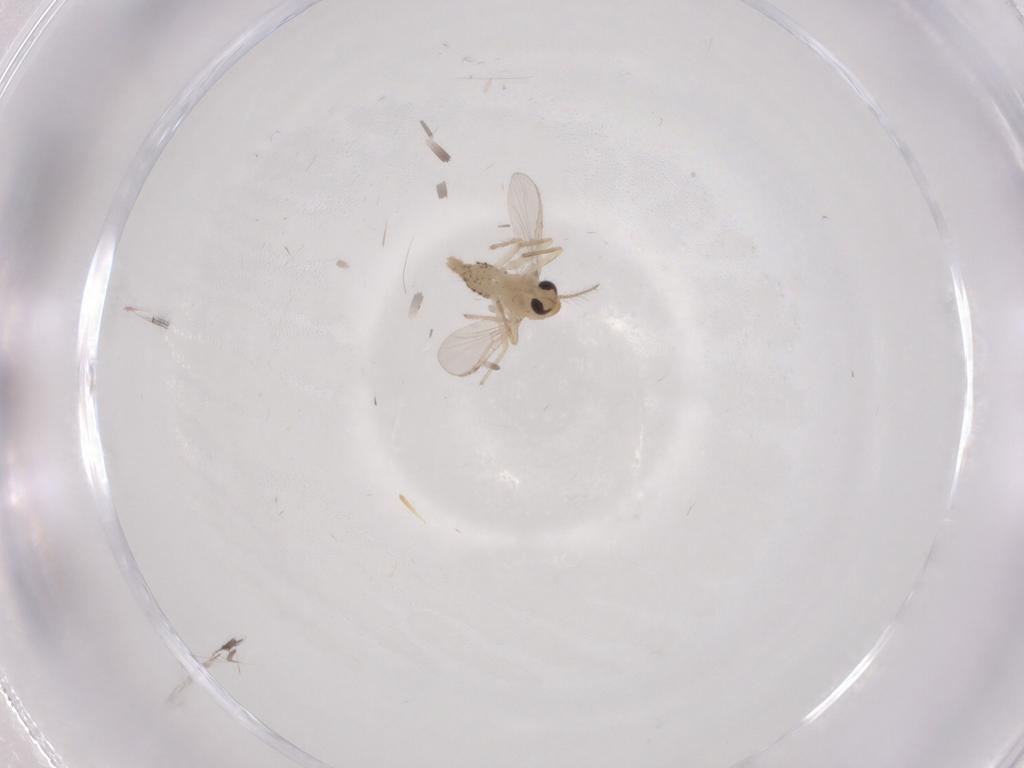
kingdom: Animalia
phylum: Arthropoda
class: Insecta
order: Diptera
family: Chironomidae
